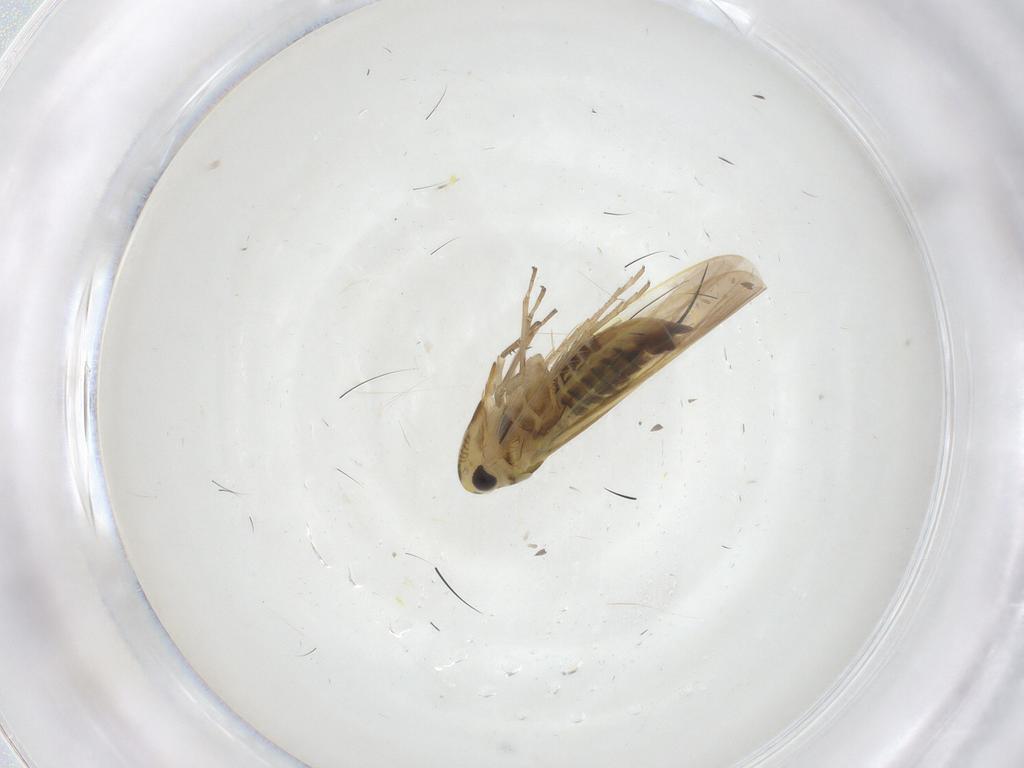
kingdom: Animalia
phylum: Arthropoda
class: Insecta
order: Hemiptera
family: Cicadellidae
